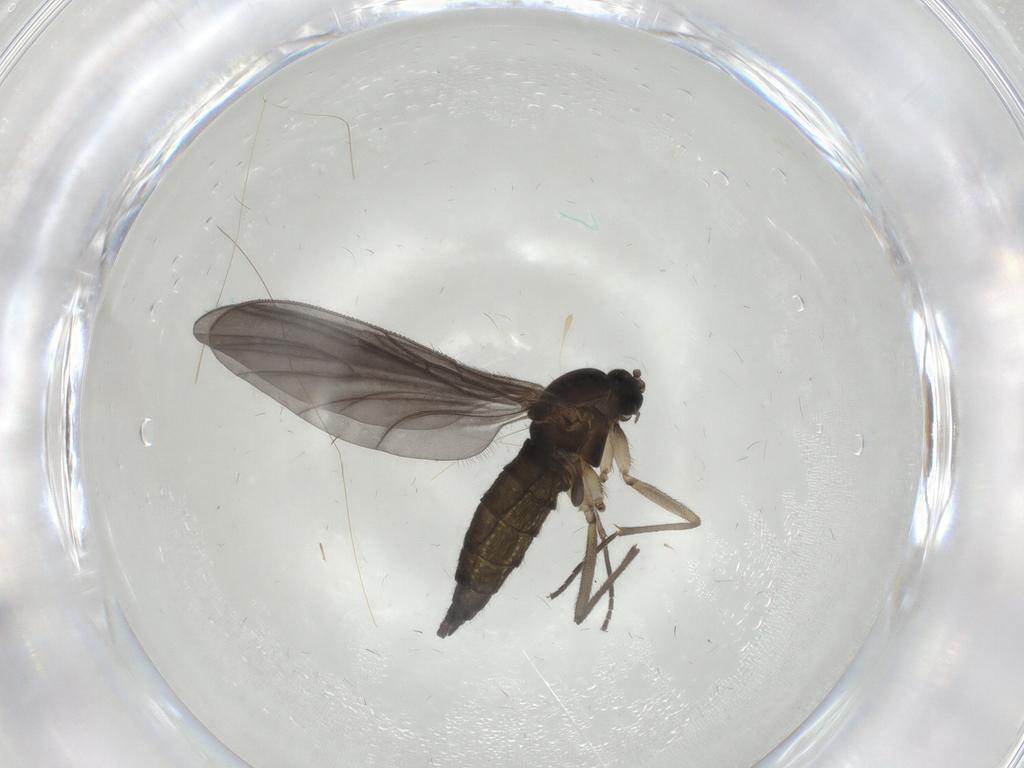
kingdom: Animalia
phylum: Arthropoda
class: Insecta
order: Diptera
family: Sciaridae
